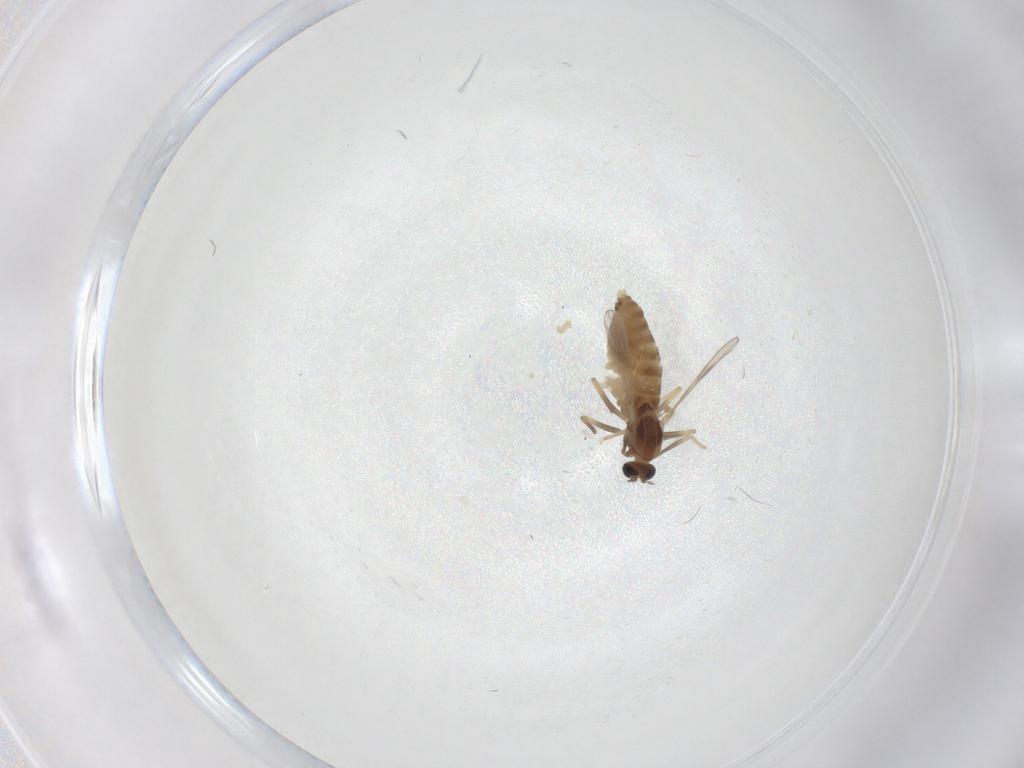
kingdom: Animalia
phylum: Arthropoda
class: Insecta
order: Diptera
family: Chironomidae
